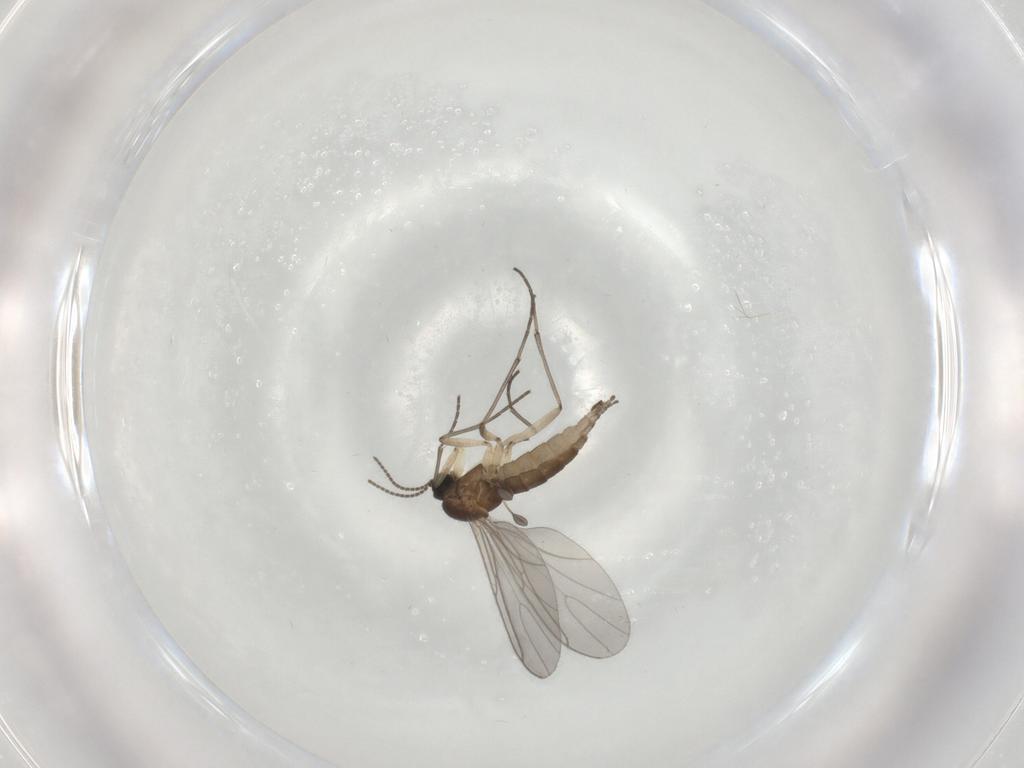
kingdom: Animalia
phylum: Arthropoda
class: Insecta
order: Diptera
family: Sciaridae
